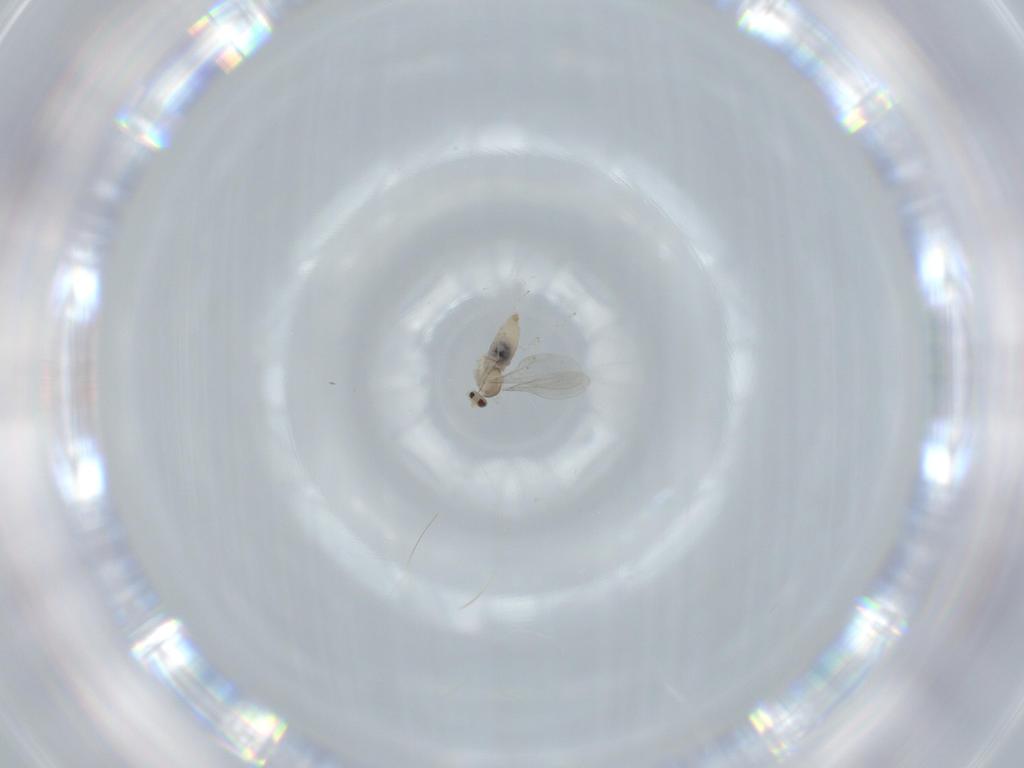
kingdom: Animalia
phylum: Arthropoda
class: Insecta
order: Diptera
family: Cecidomyiidae
